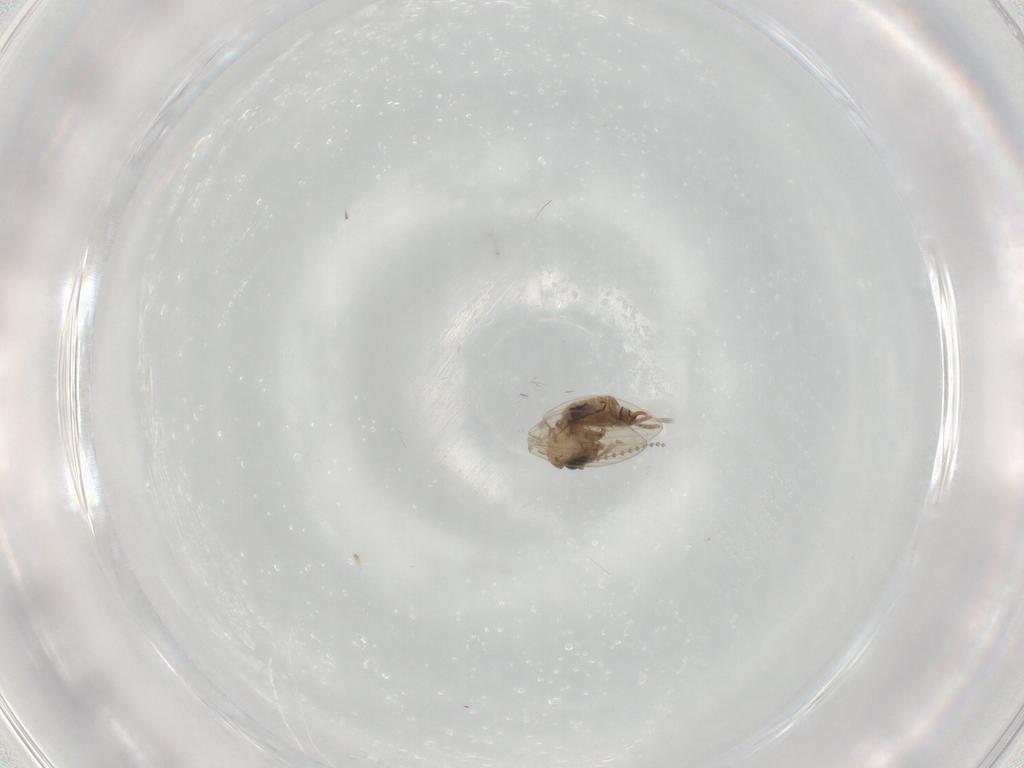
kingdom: Animalia
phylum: Arthropoda
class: Insecta
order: Diptera
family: Psychodidae
